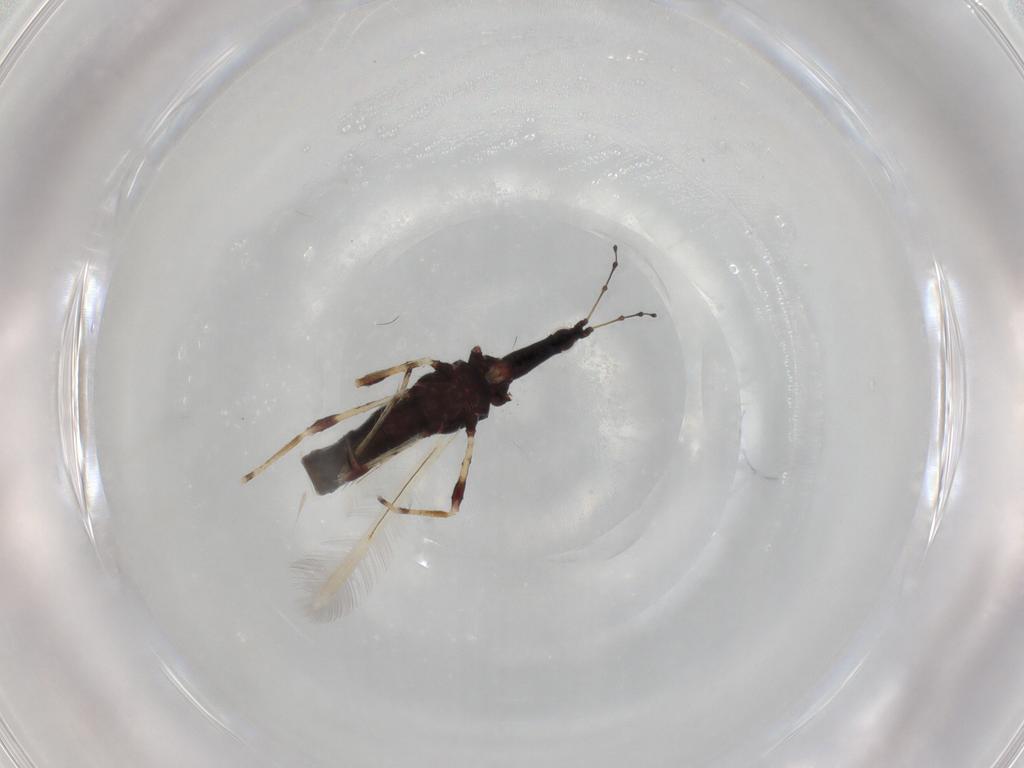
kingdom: Animalia
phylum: Arthropoda
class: Insecta
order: Thysanoptera
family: Phlaeothripidae
